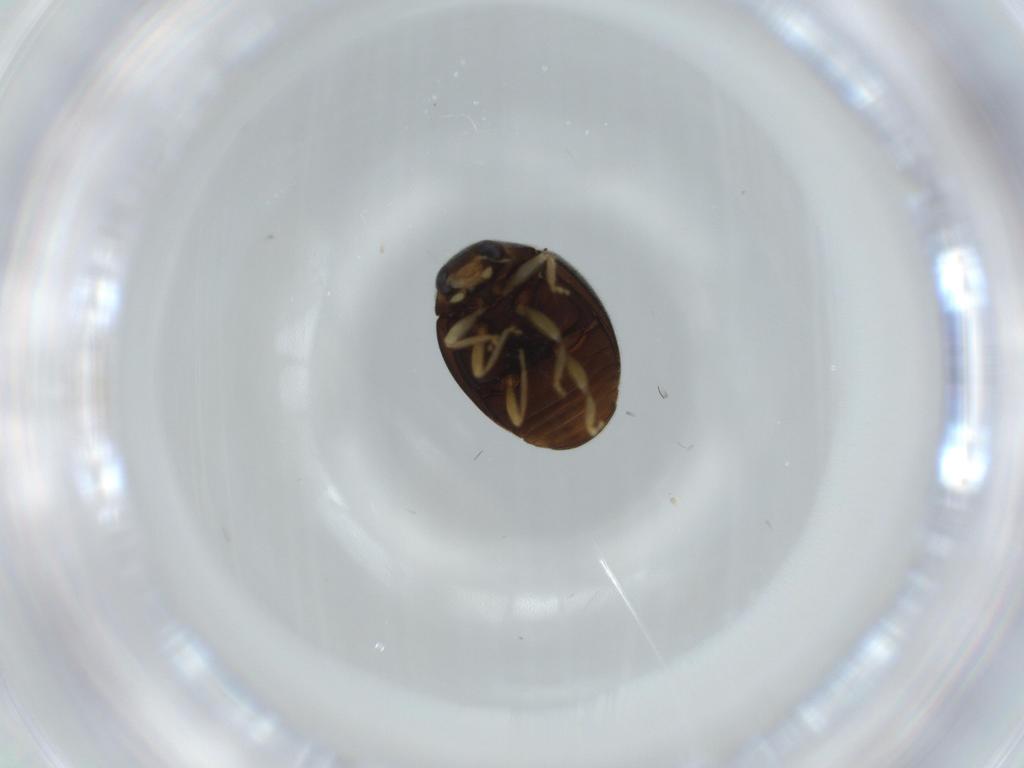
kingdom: Animalia
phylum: Arthropoda
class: Insecta
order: Coleoptera
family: Coccinellidae
